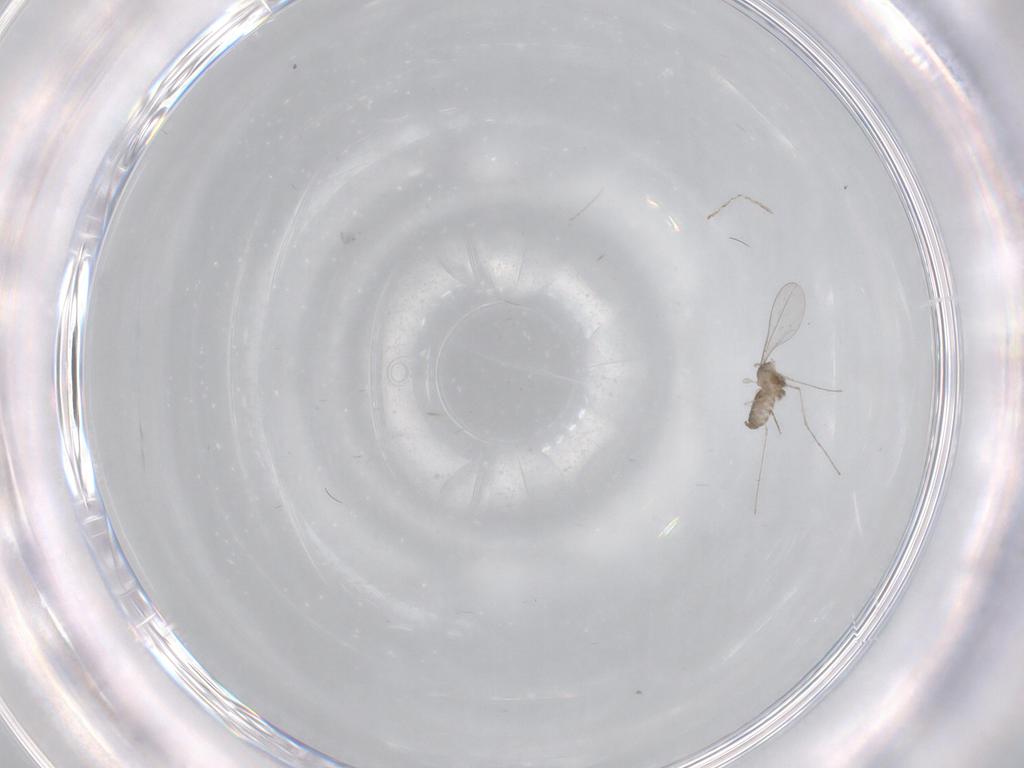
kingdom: Animalia
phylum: Arthropoda
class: Insecta
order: Diptera
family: Cecidomyiidae
